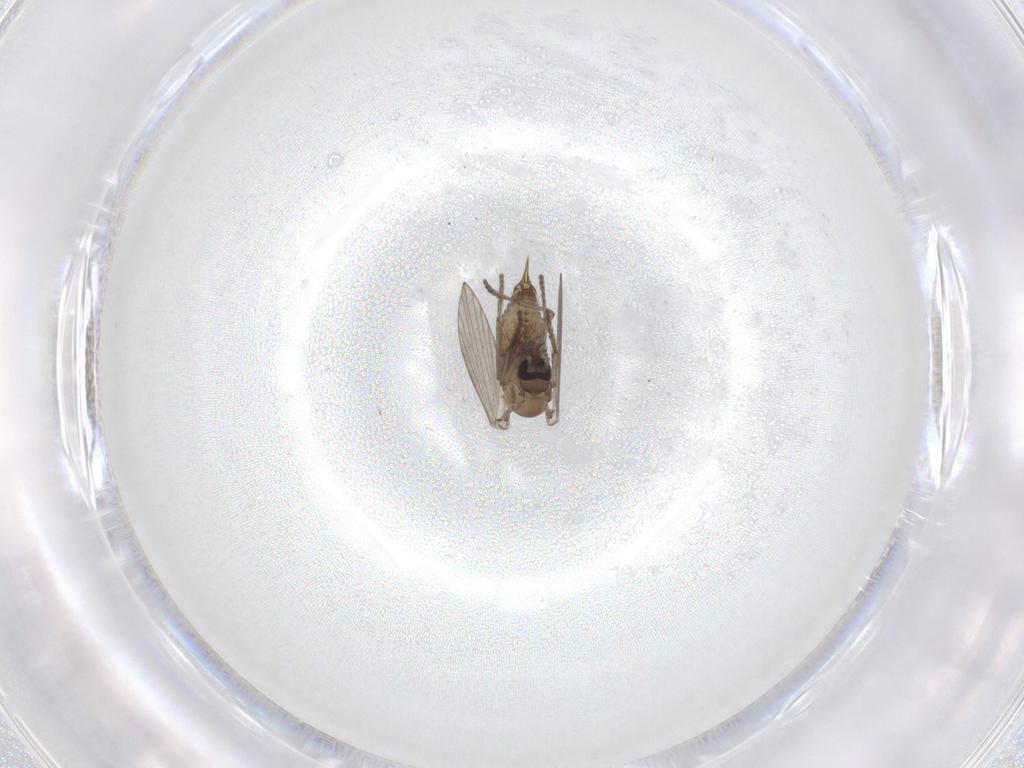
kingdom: Animalia
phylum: Arthropoda
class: Insecta
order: Diptera
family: Psychodidae
